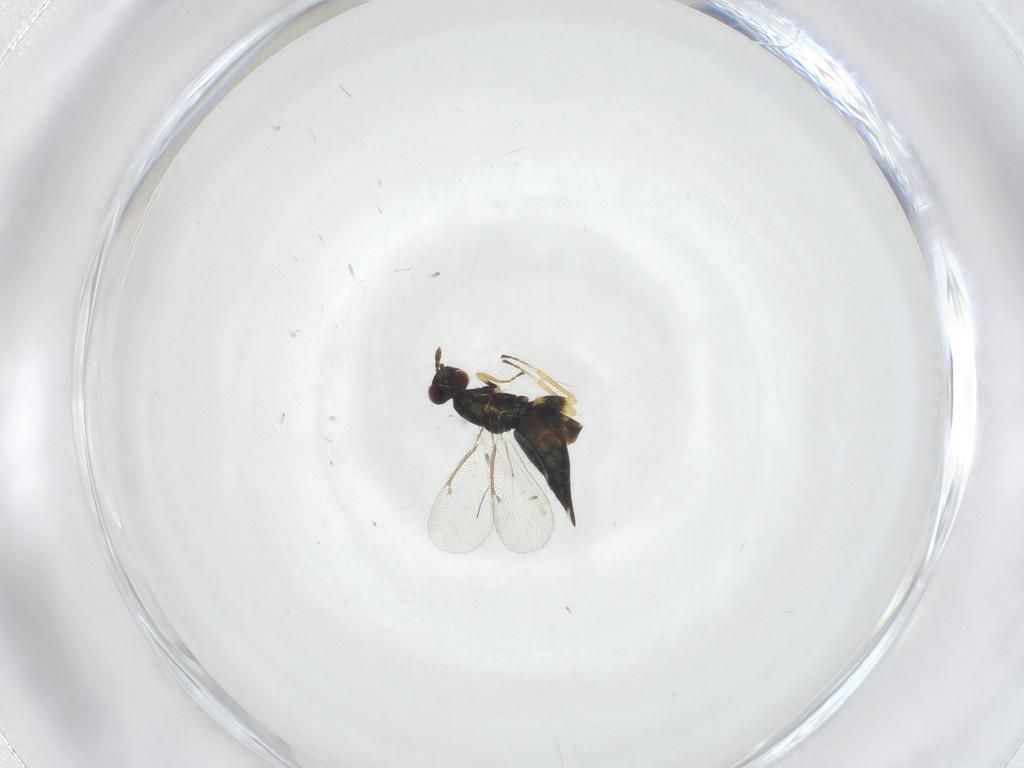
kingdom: Animalia
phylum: Arthropoda
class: Insecta
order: Hymenoptera
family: Eulophidae
